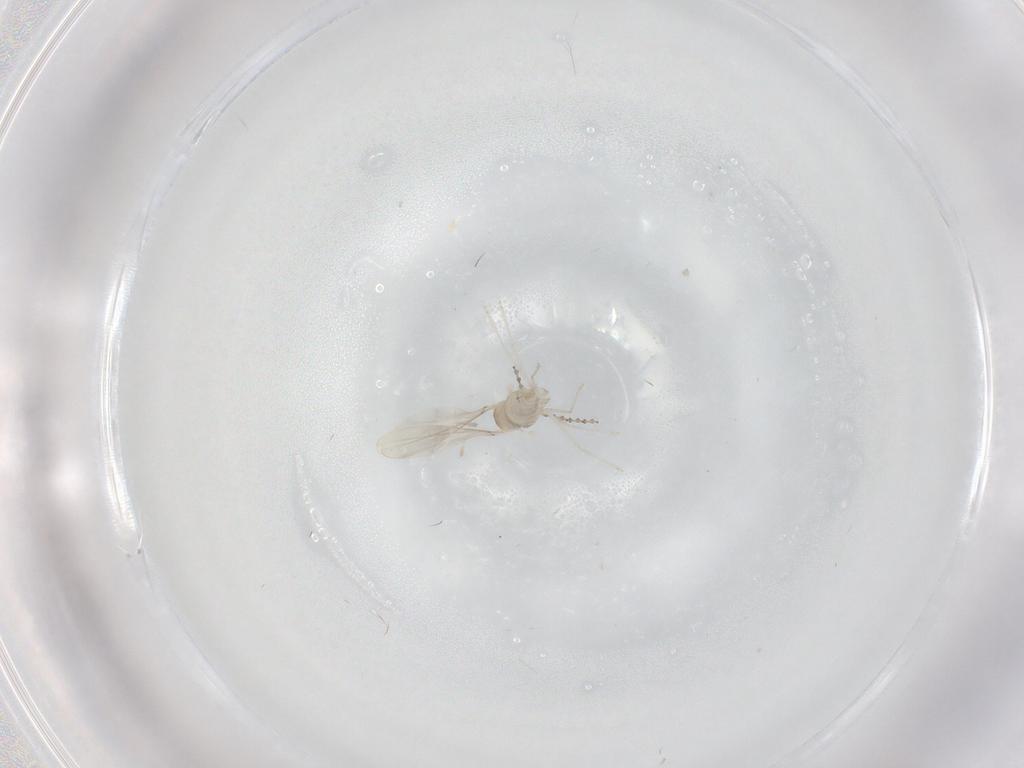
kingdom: Animalia
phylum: Arthropoda
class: Insecta
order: Diptera
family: Cecidomyiidae
